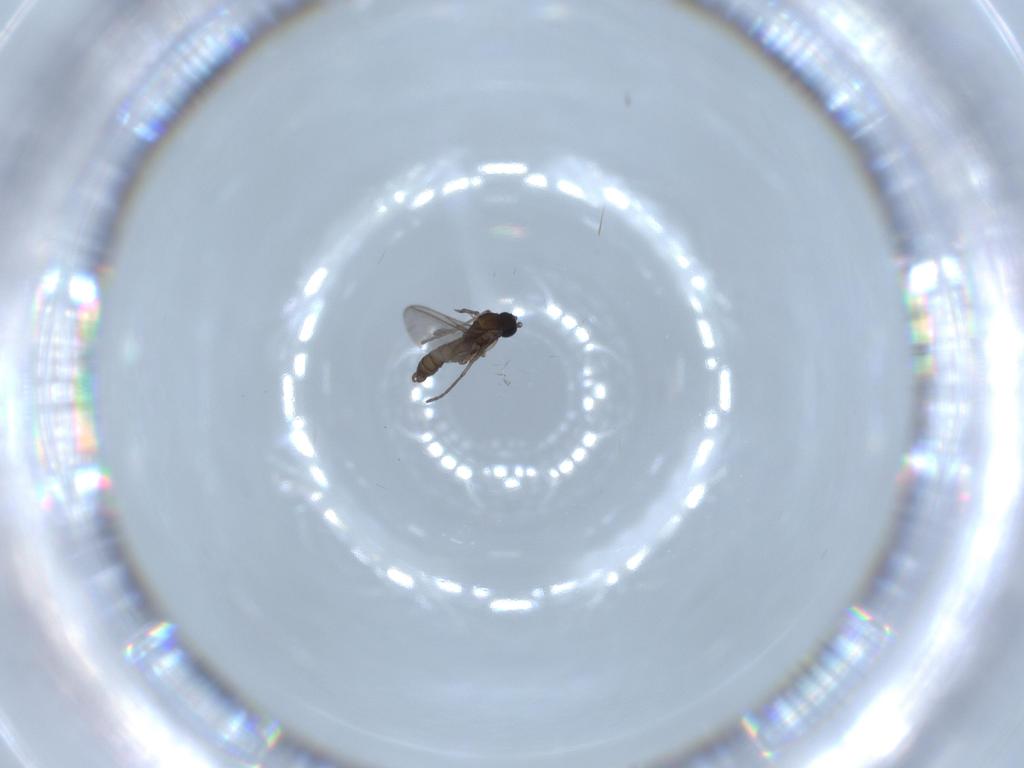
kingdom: Animalia
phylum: Arthropoda
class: Insecta
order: Diptera
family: Sciaridae
